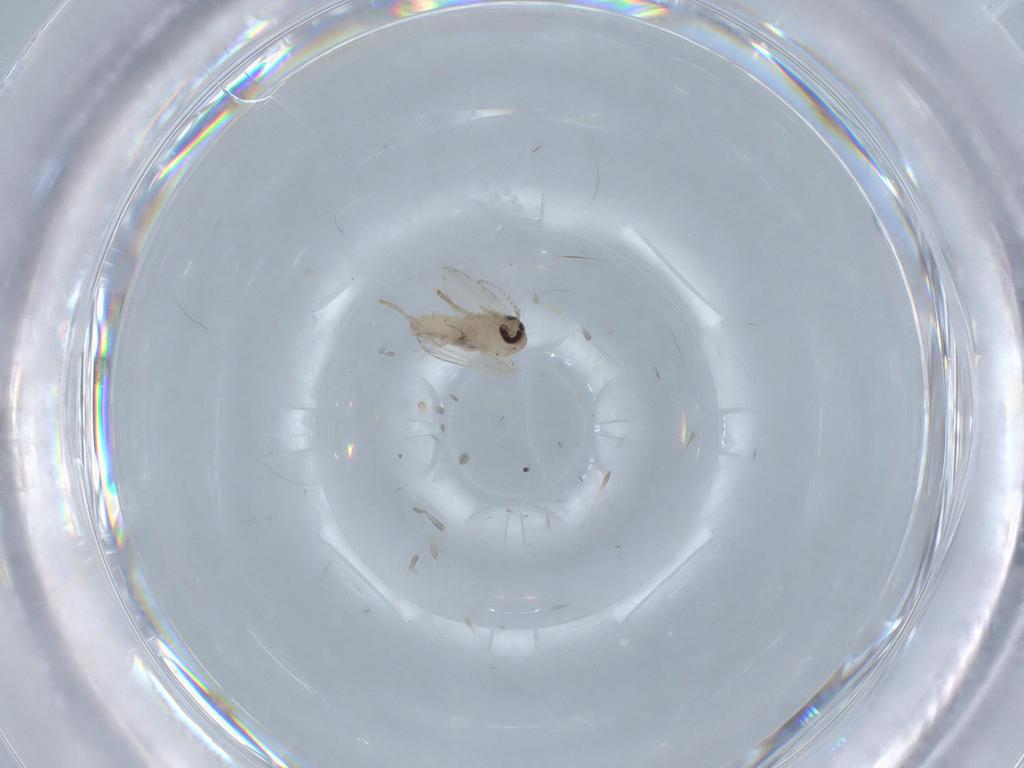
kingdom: Animalia
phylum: Arthropoda
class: Insecta
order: Diptera
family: Psychodidae
